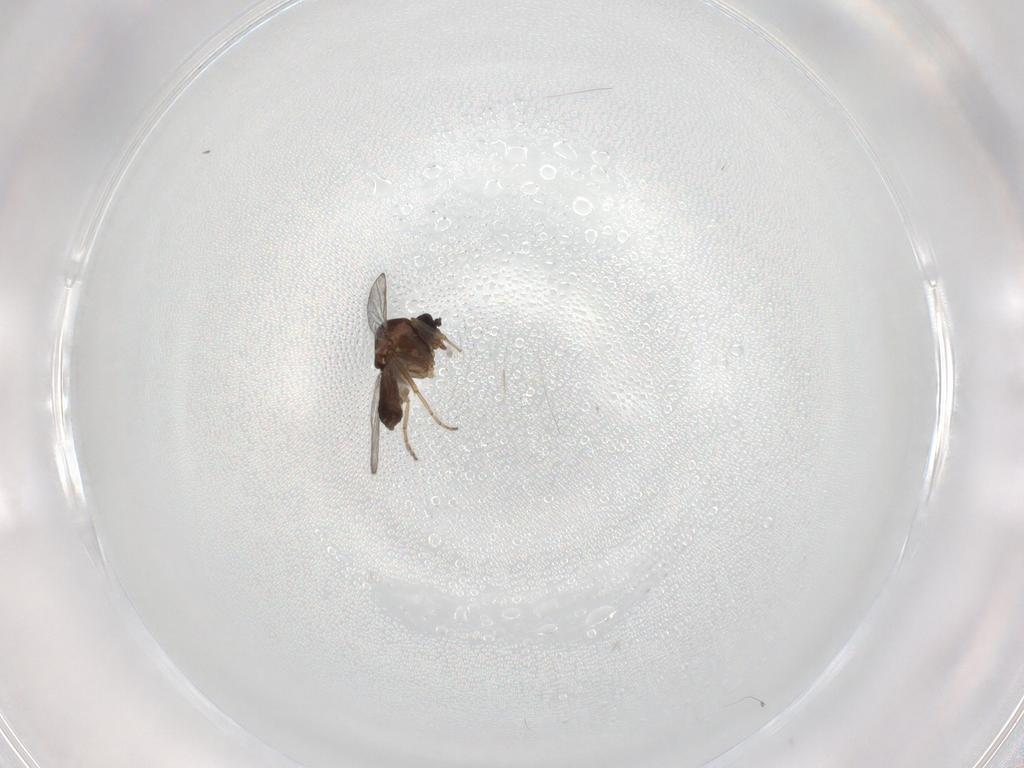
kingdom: Animalia
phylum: Arthropoda
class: Insecta
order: Diptera
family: Ceratopogonidae
